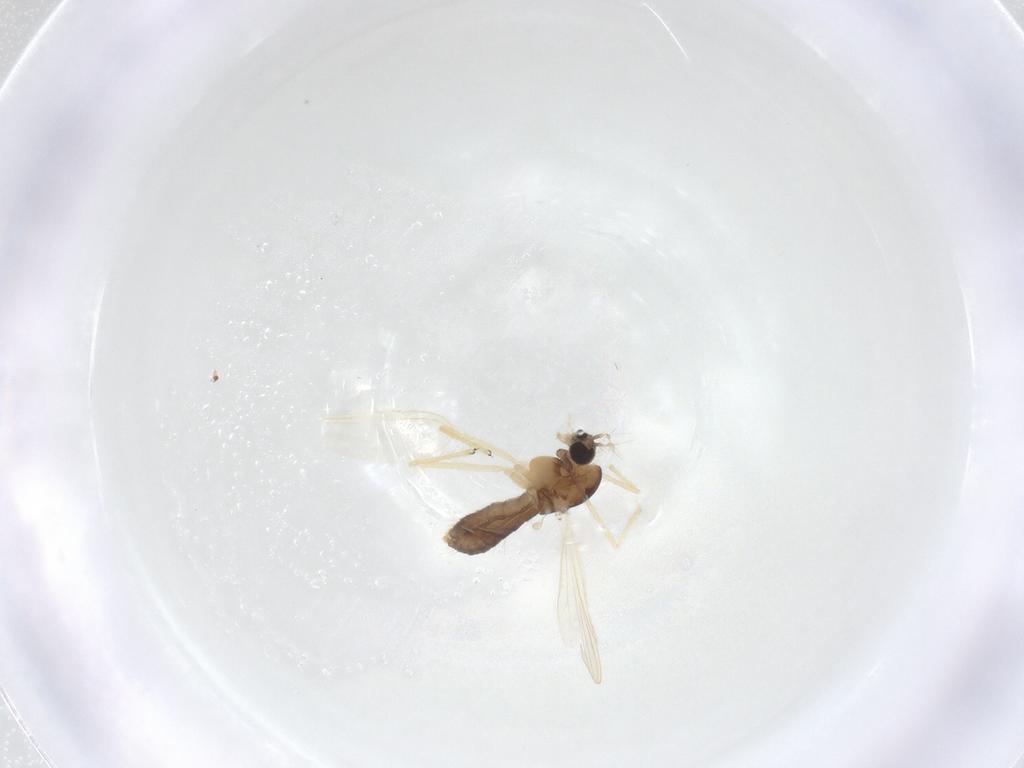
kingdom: Animalia
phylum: Arthropoda
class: Insecta
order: Diptera
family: Chironomidae
